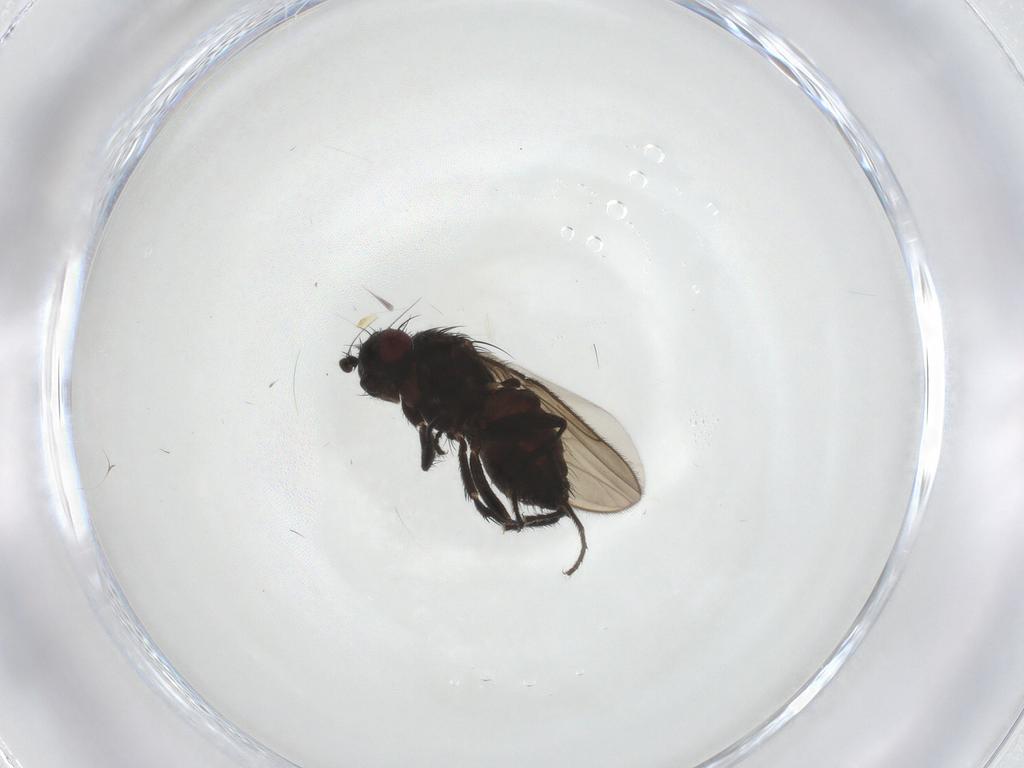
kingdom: Animalia
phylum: Arthropoda
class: Insecta
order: Diptera
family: Sphaeroceridae
